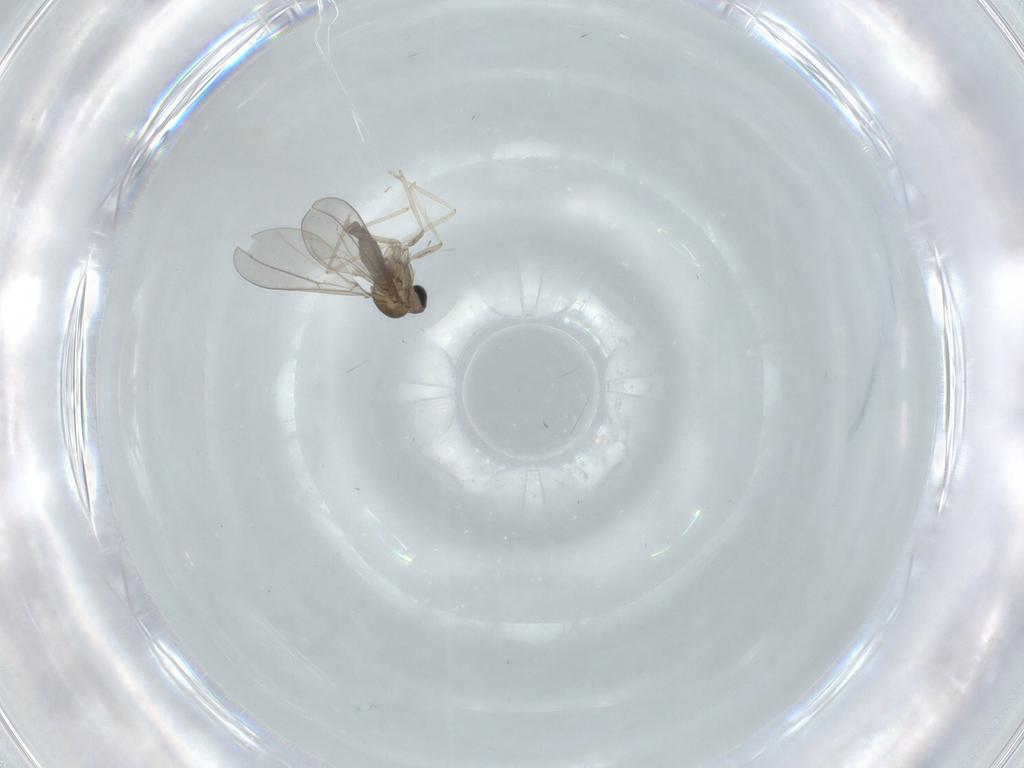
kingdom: Animalia
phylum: Arthropoda
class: Insecta
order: Diptera
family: Cecidomyiidae
